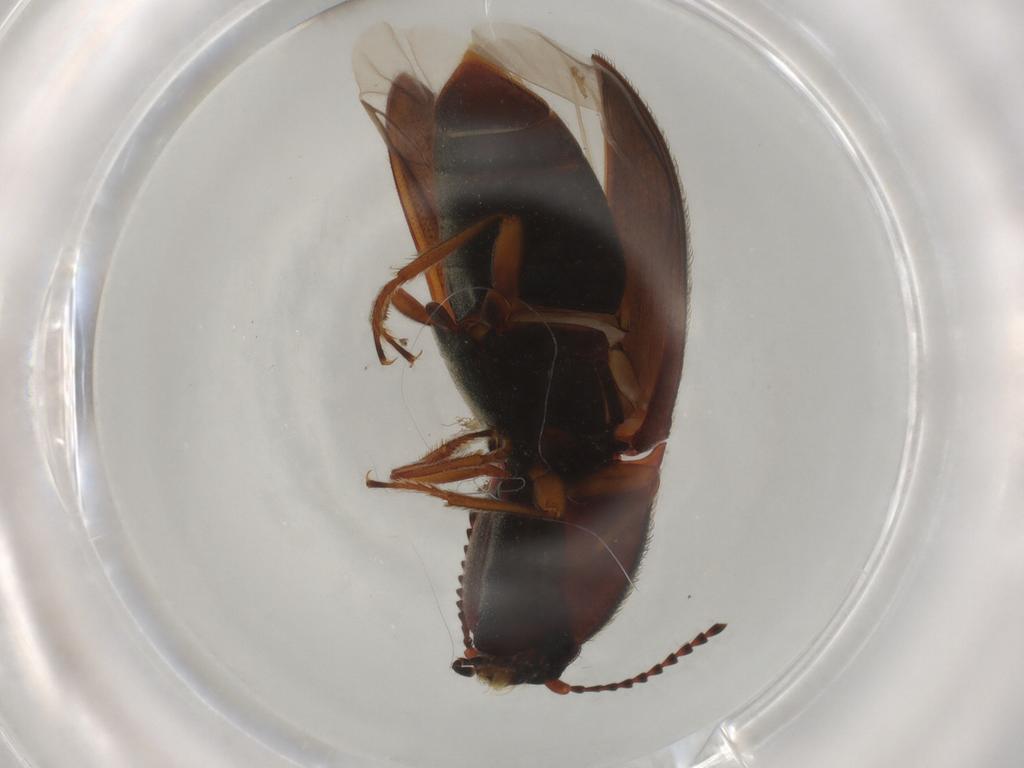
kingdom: Animalia
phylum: Arthropoda
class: Insecta
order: Coleoptera
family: Elateridae
